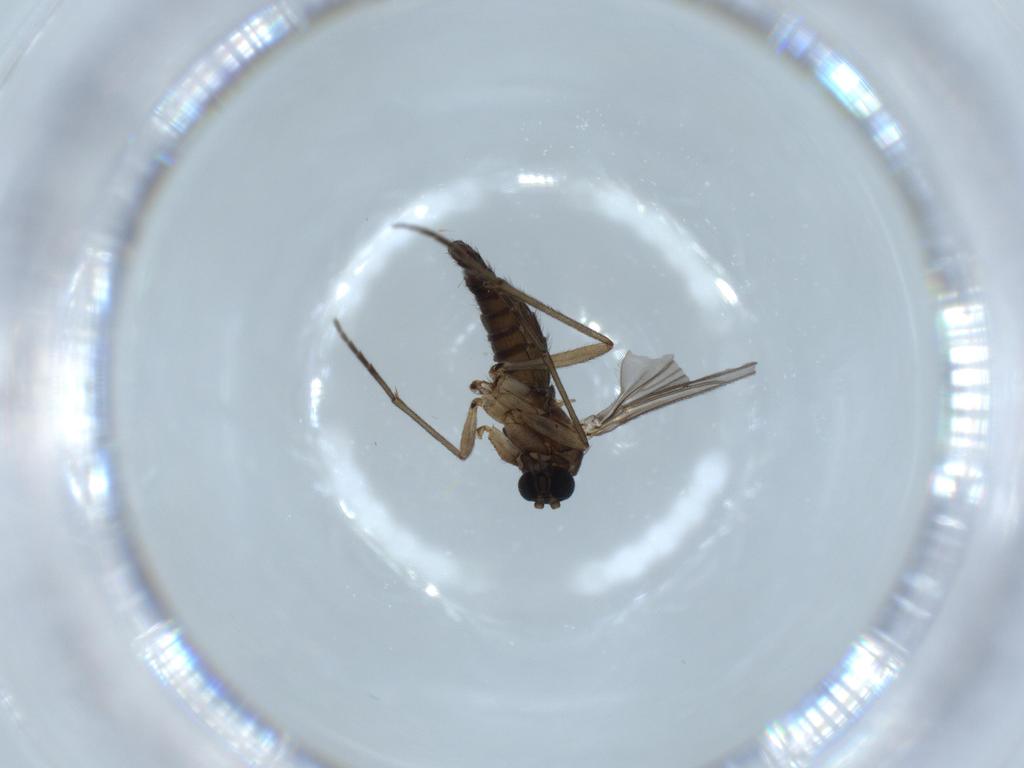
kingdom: Animalia
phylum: Arthropoda
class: Insecta
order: Diptera
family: Sciaridae
